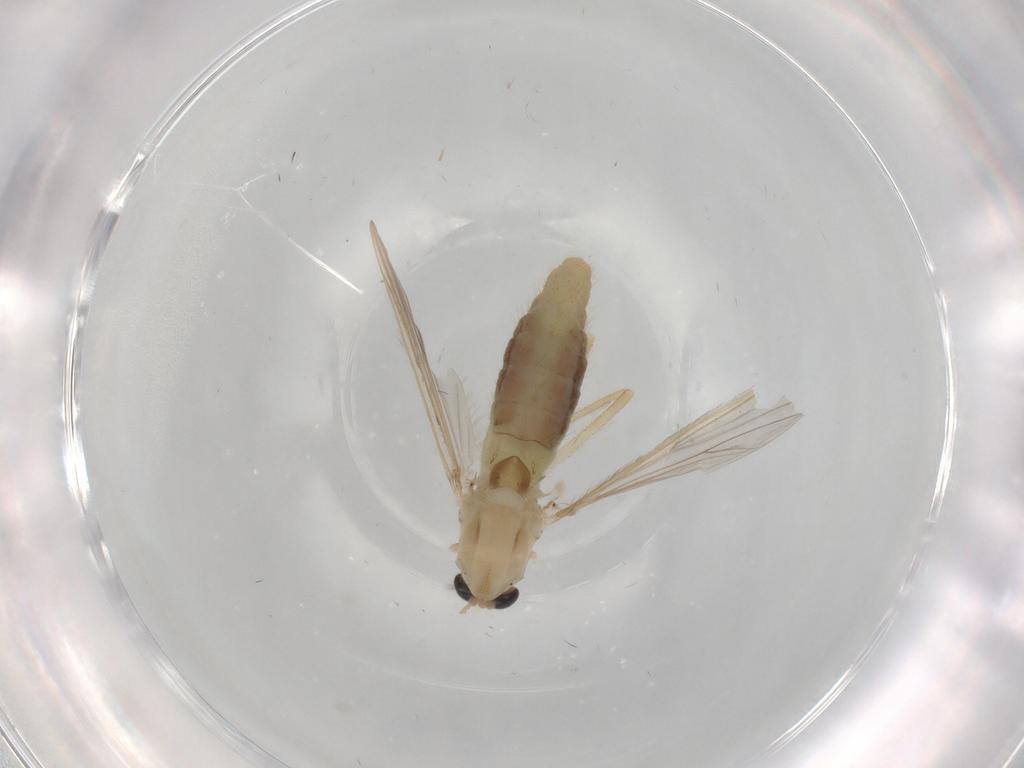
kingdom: Animalia
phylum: Arthropoda
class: Insecta
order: Diptera
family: Chironomidae
